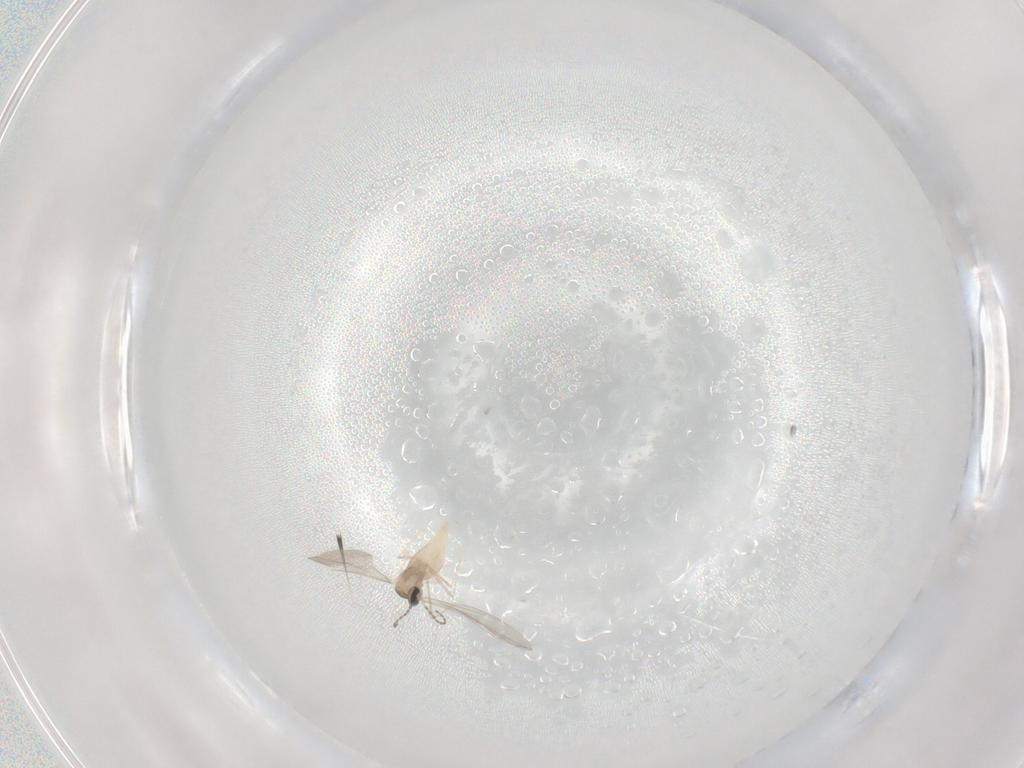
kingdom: Animalia
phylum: Arthropoda
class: Insecta
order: Diptera
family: Cecidomyiidae
